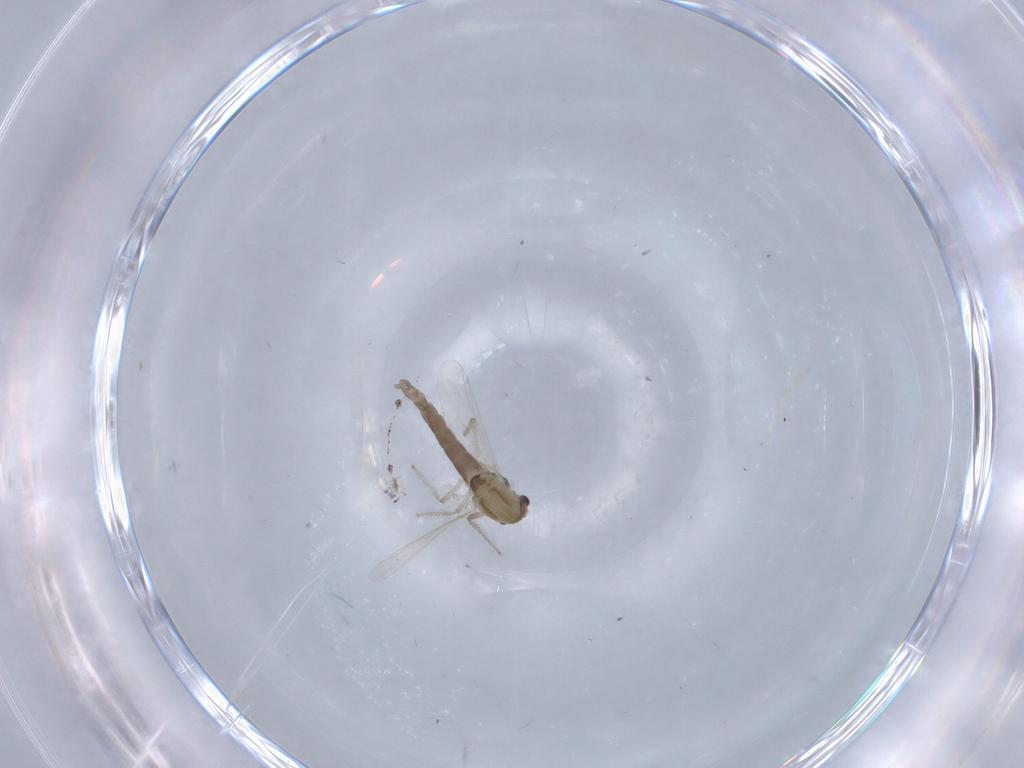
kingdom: Animalia
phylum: Arthropoda
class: Insecta
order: Diptera
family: Chironomidae
